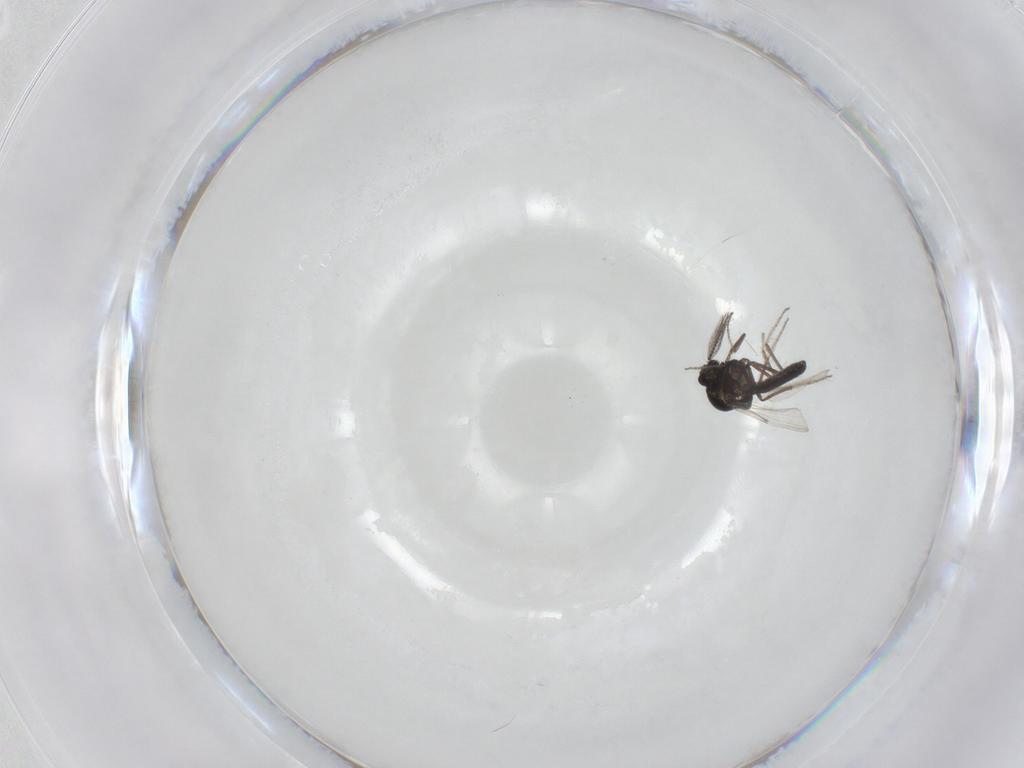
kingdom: Animalia
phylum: Arthropoda
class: Insecta
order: Diptera
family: Ceratopogonidae
